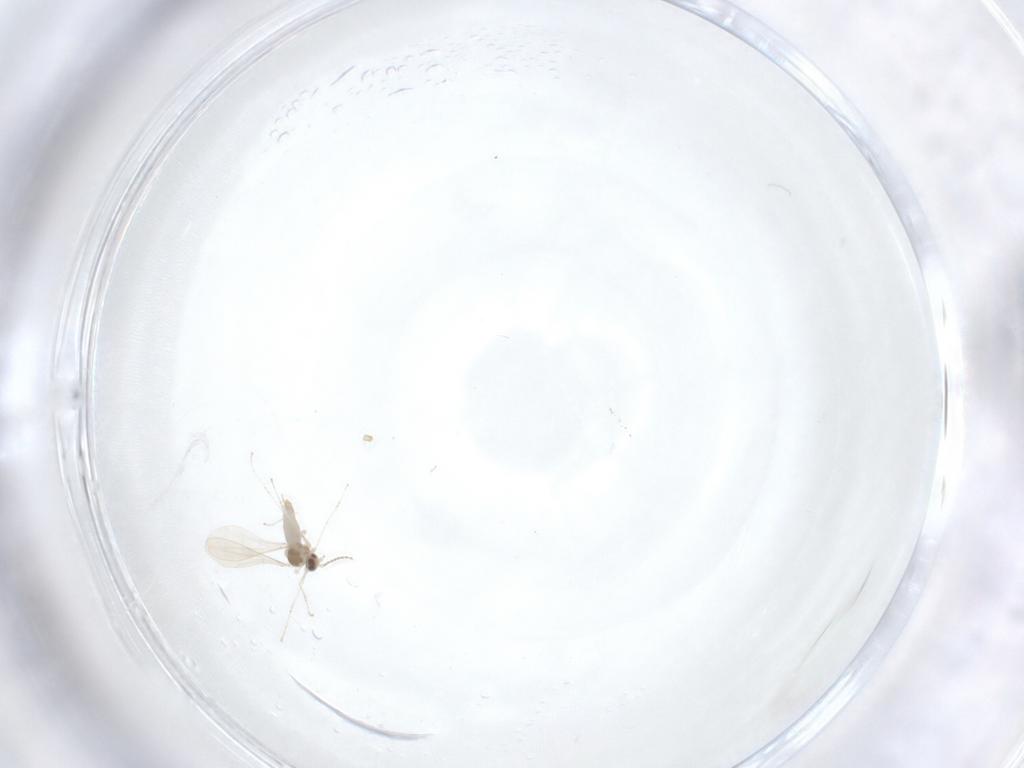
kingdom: Animalia
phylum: Arthropoda
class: Insecta
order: Diptera
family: Cecidomyiidae
